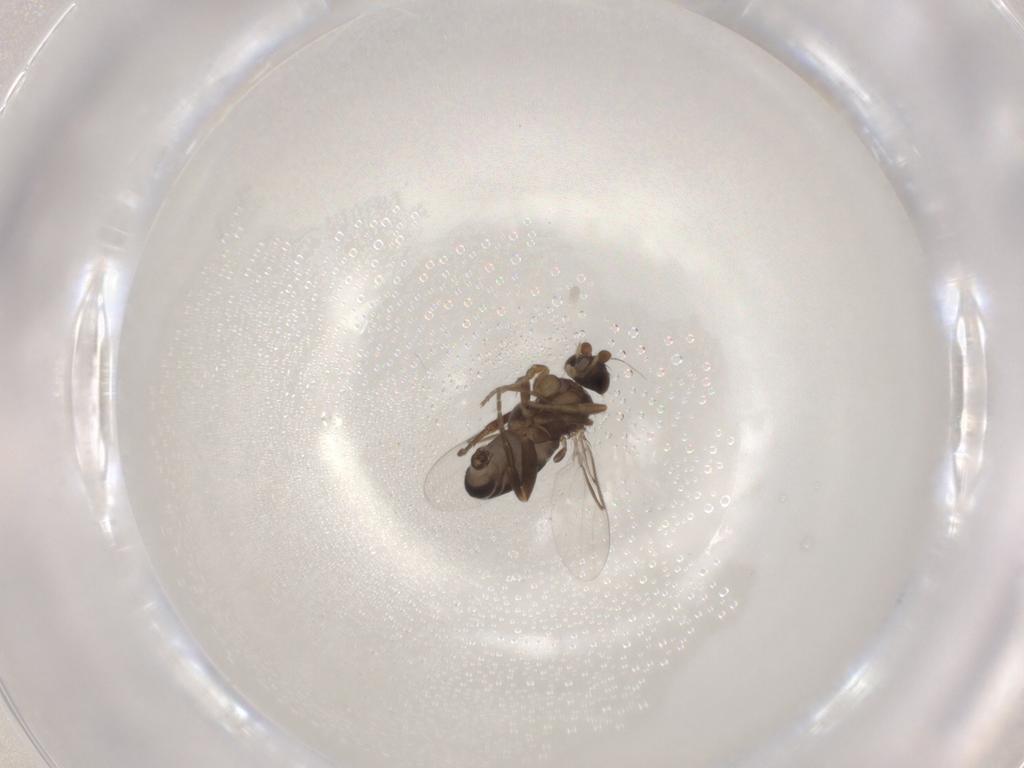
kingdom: Animalia
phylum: Arthropoda
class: Insecta
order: Diptera
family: Phoridae
